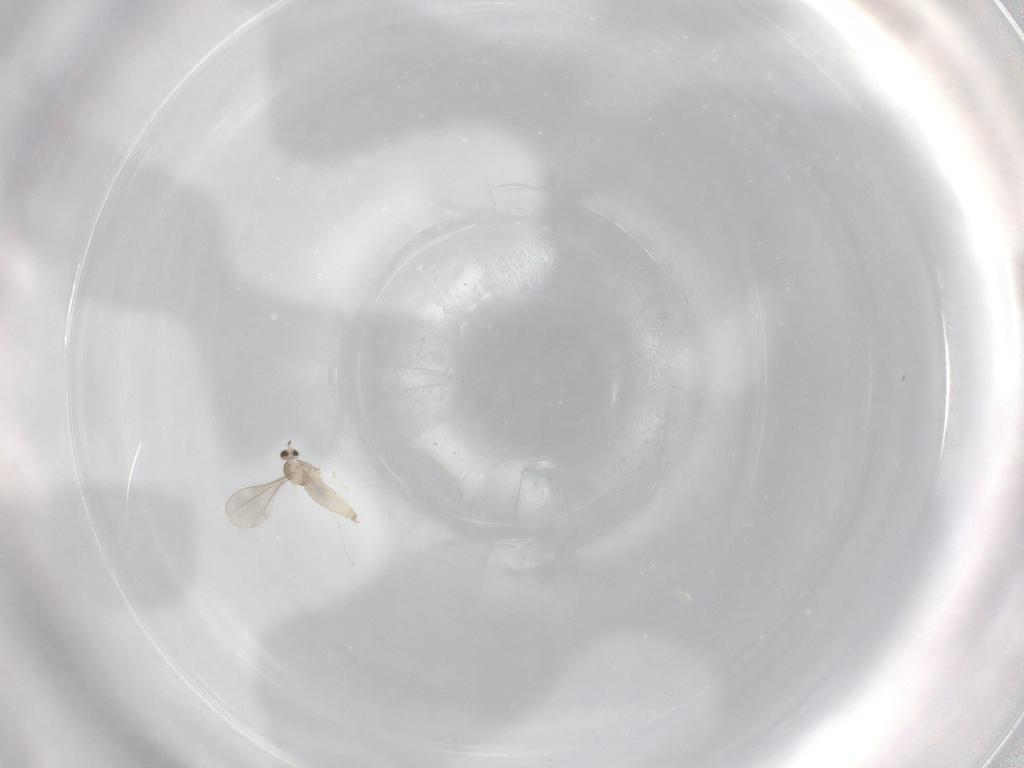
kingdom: Animalia
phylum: Arthropoda
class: Insecta
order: Diptera
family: Cecidomyiidae
